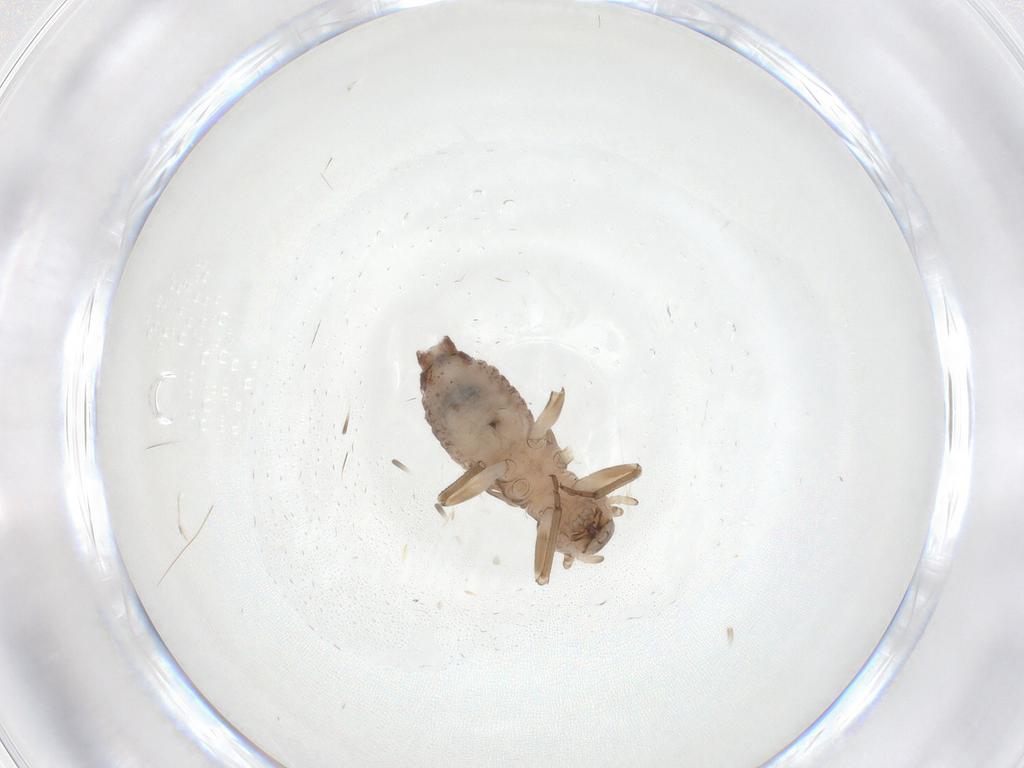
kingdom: Animalia
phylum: Arthropoda
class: Insecta
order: Psocodea
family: Psocidae
